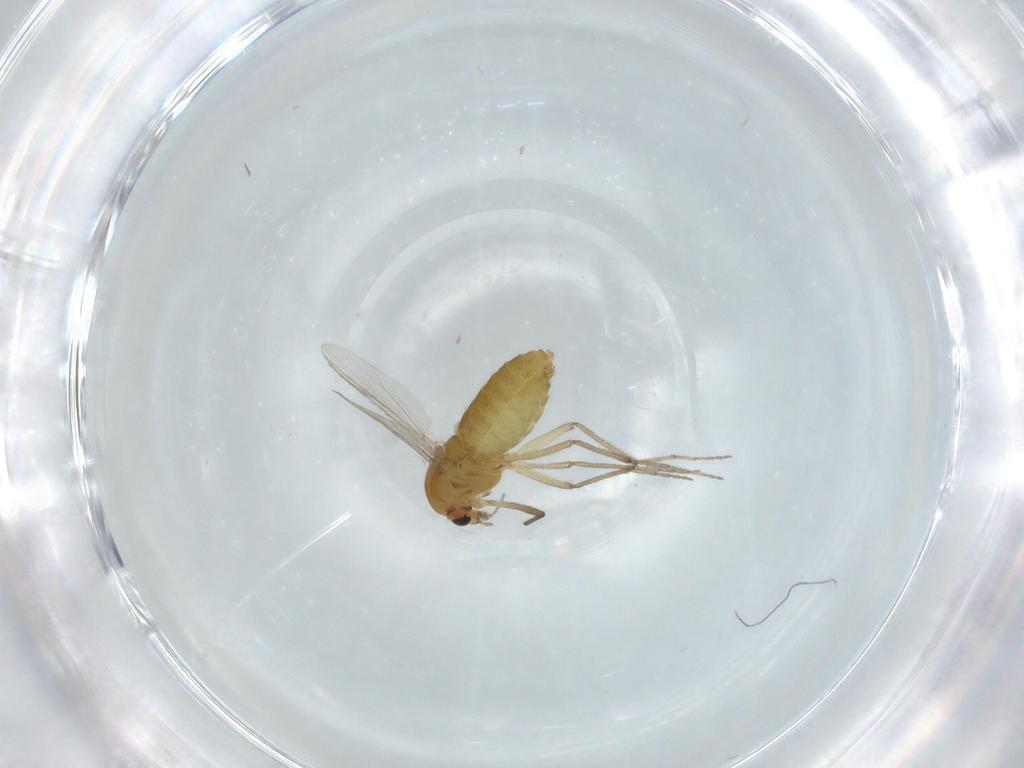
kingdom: Animalia
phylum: Arthropoda
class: Insecta
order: Diptera
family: Chironomidae
